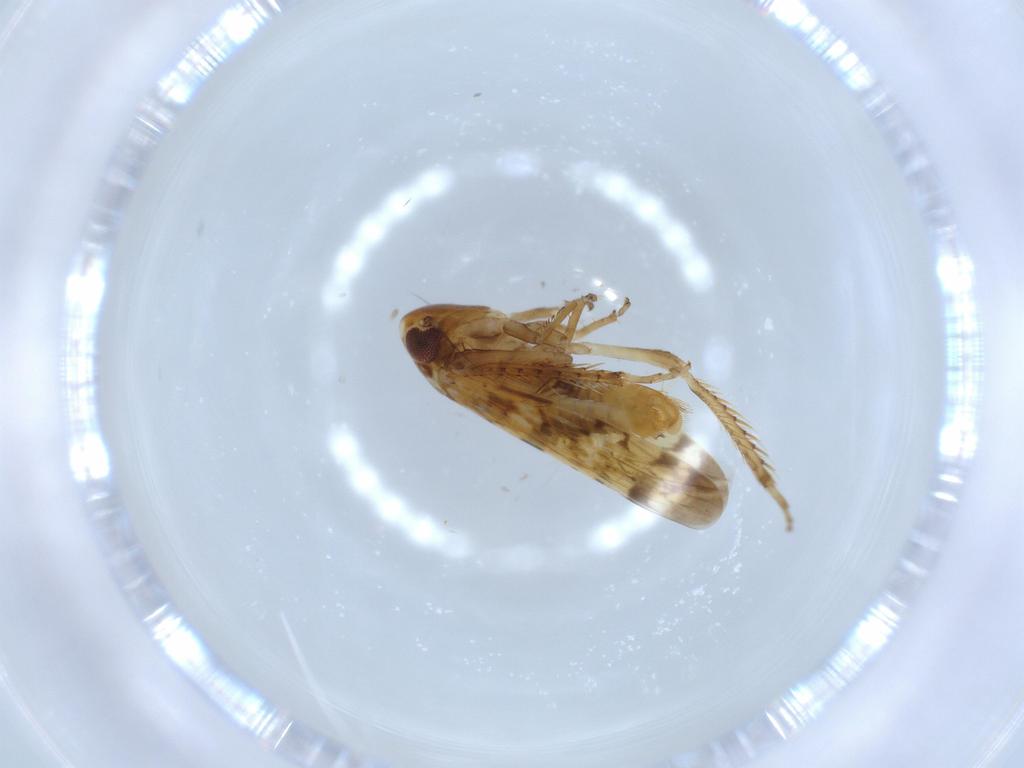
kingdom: Animalia
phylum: Arthropoda
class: Insecta
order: Hemiptera
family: Cicadellidae
